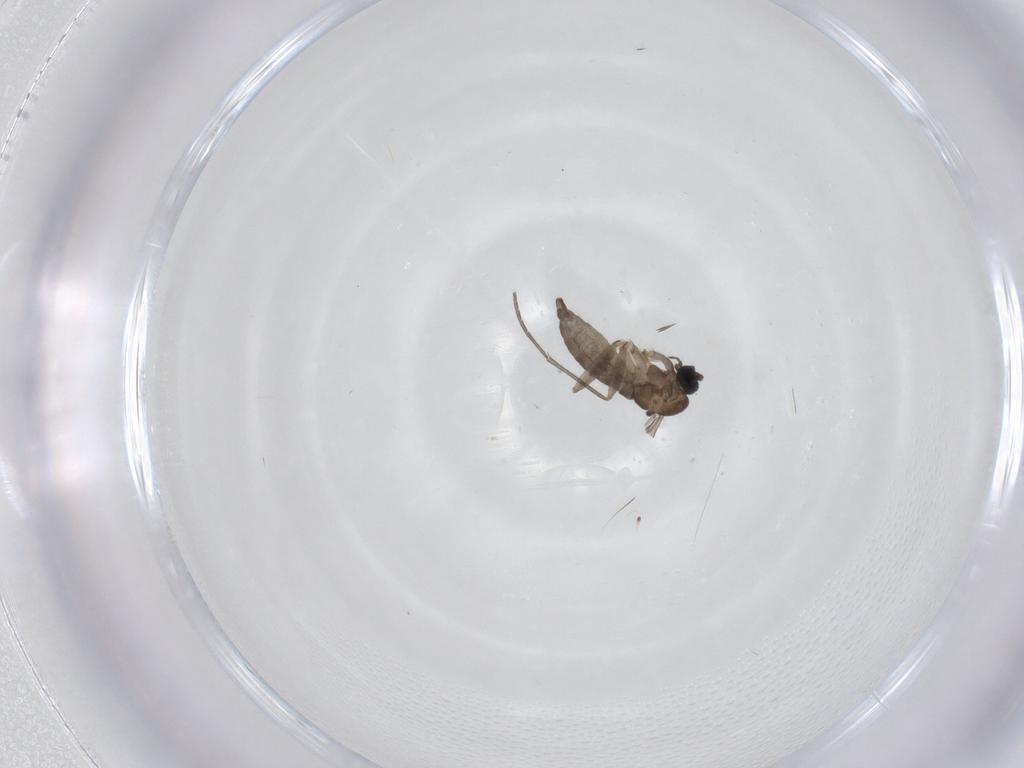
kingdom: Animalia
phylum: Arthropoda
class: Insecta
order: Diptera
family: Sciaridae
